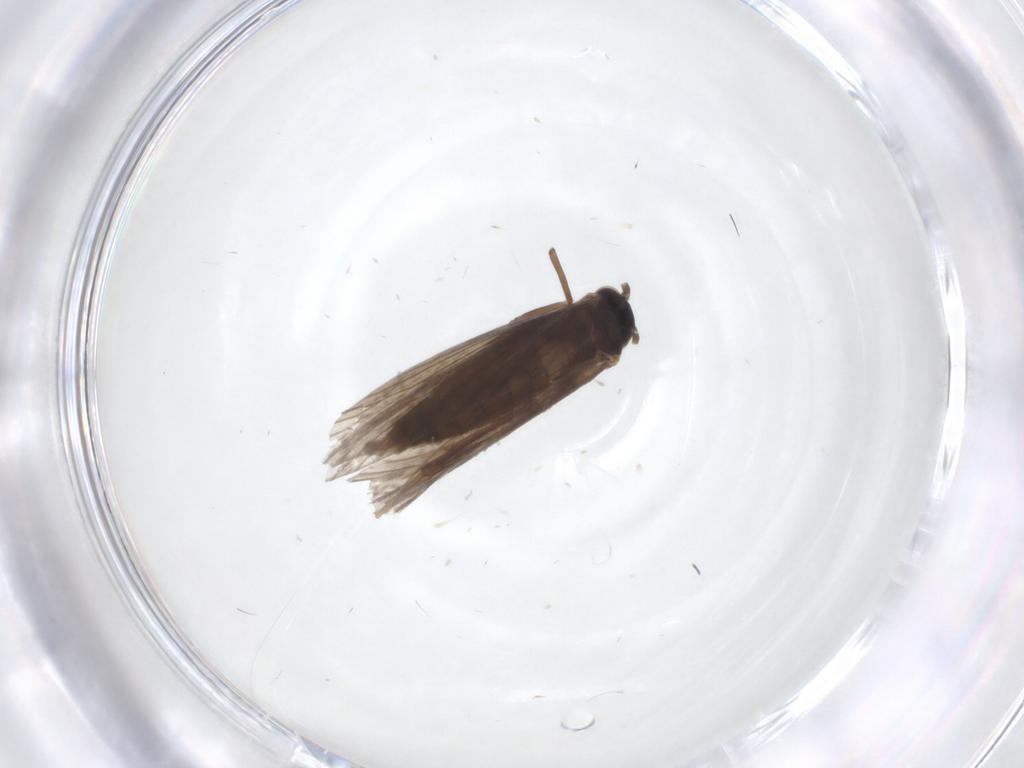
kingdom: Animalia
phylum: Arthropoda
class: Insecta
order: Lepidoptera
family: Micropterigidae
